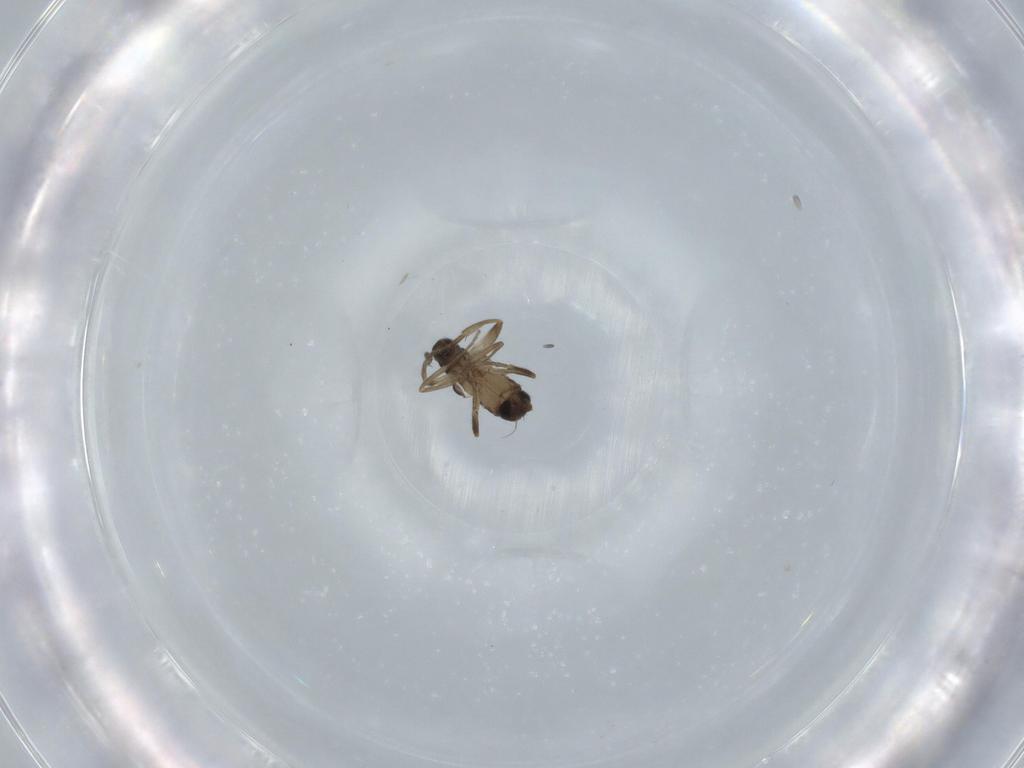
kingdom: Animalia
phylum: Arthropoda
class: Insecta
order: Diptera
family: Phoridae
